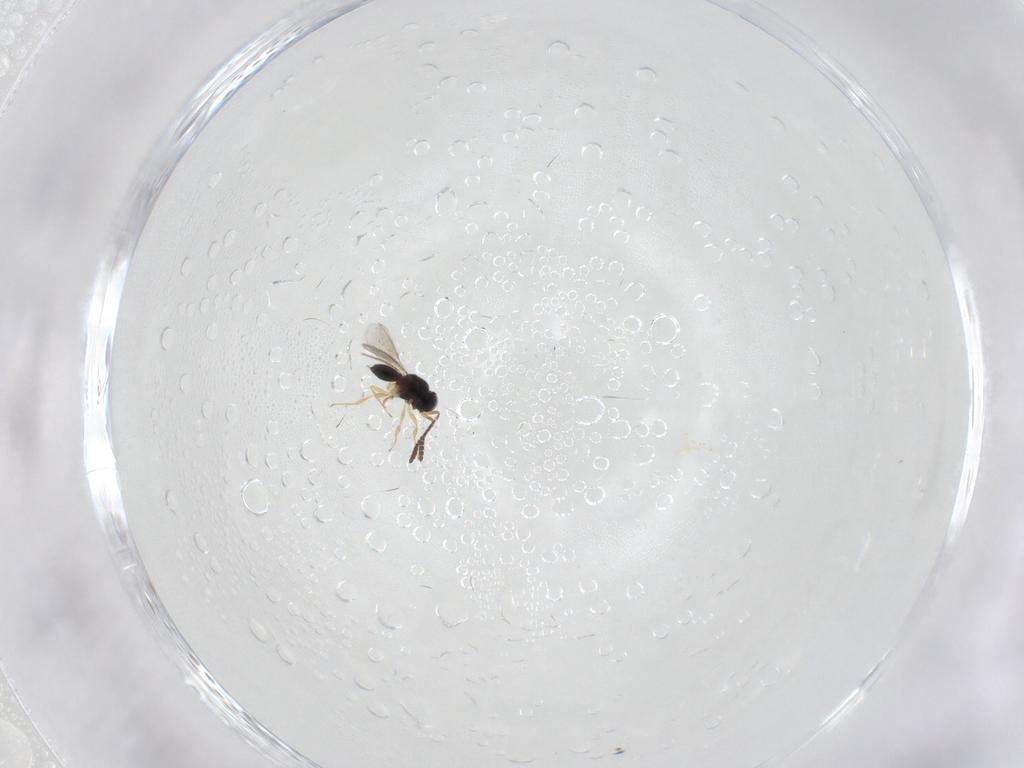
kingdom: Animalia
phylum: Arthropoda
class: Insecta
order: Hymenoptera
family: Scelionidae
